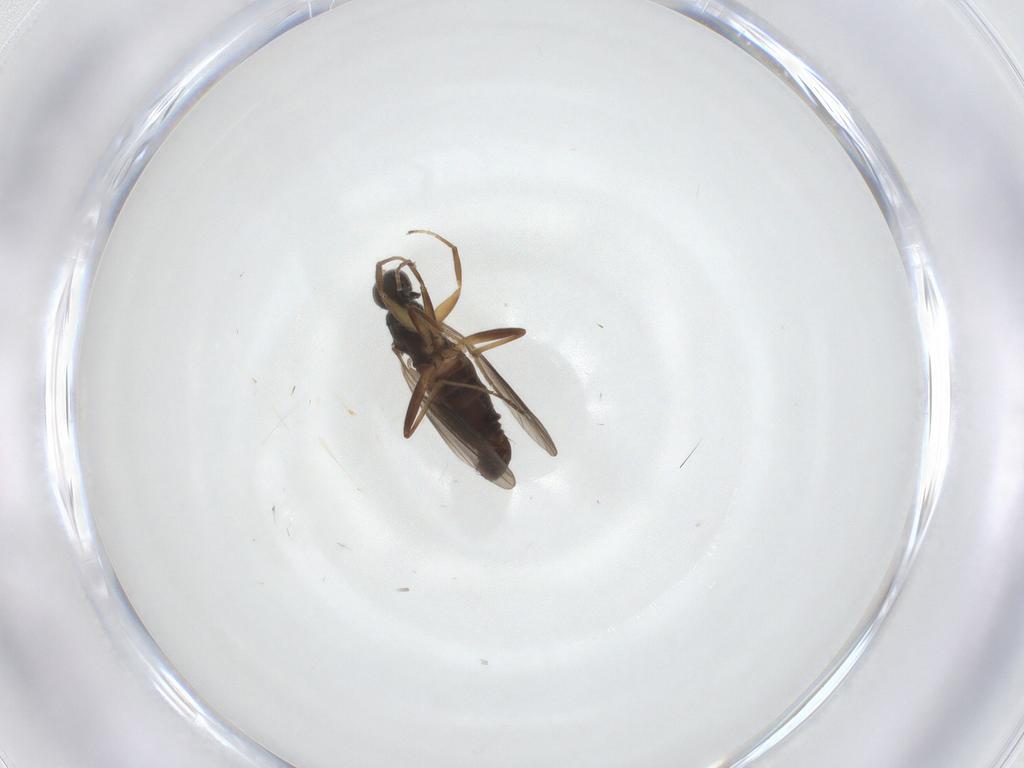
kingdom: Animalia
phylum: Arthropoda
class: Insecta
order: Diptera
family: Hybotidae
